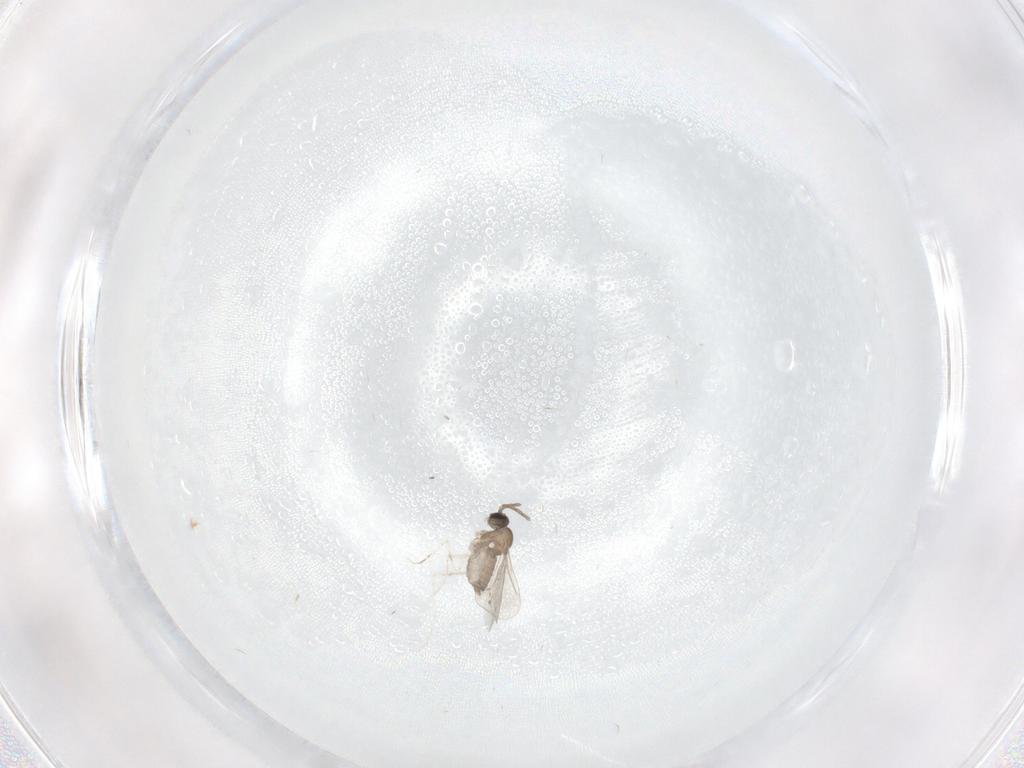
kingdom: Animalia
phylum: Arthropoda
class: Insecta
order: Diptera
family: Cecidomyiidae
